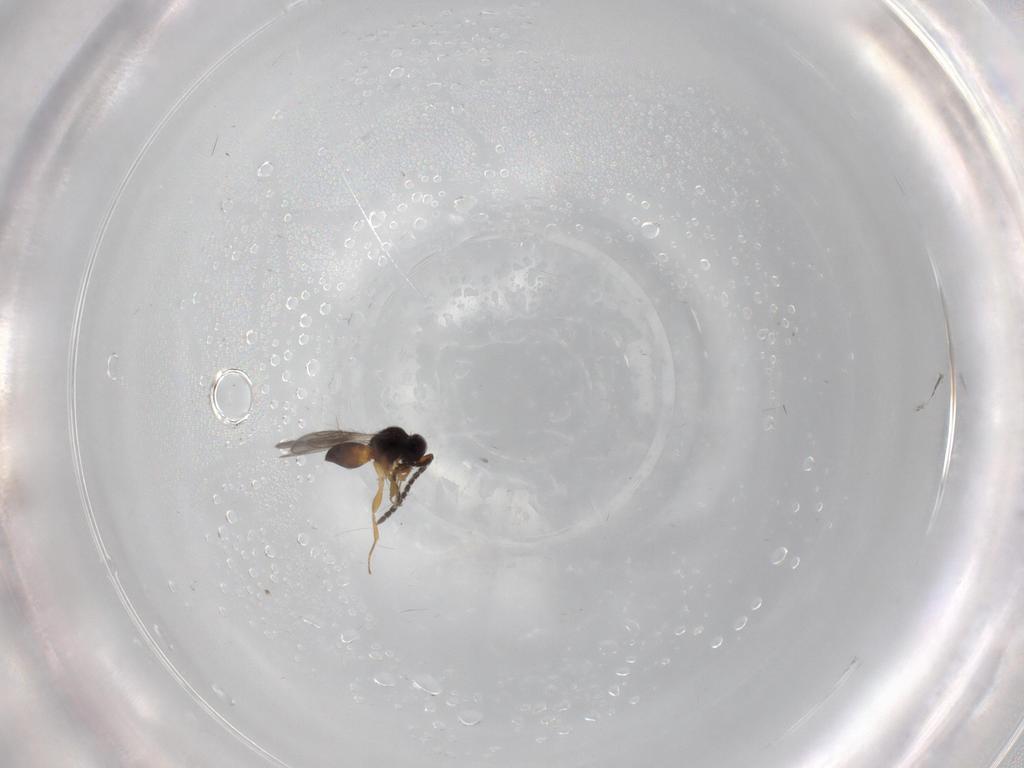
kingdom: Animalia
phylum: Arthropoda
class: Insecta
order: Hymenoptera
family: Ceraphronidae
